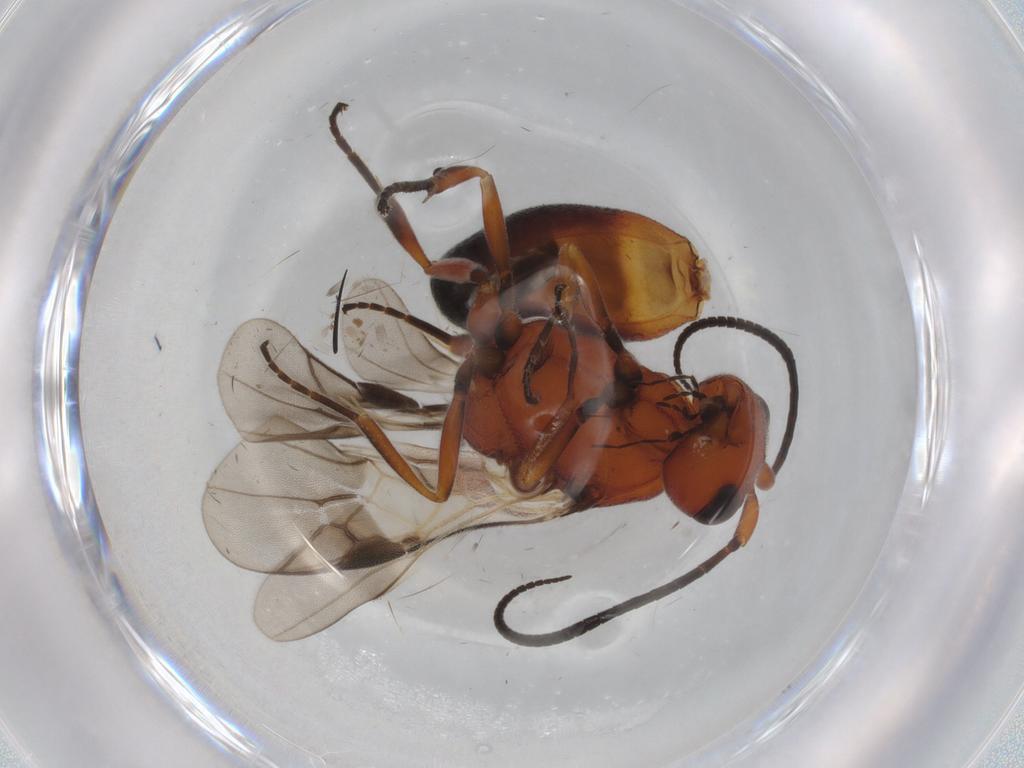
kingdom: Animalia
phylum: Arthropoda
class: Insecta
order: Hymenoptera
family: Braconidae
